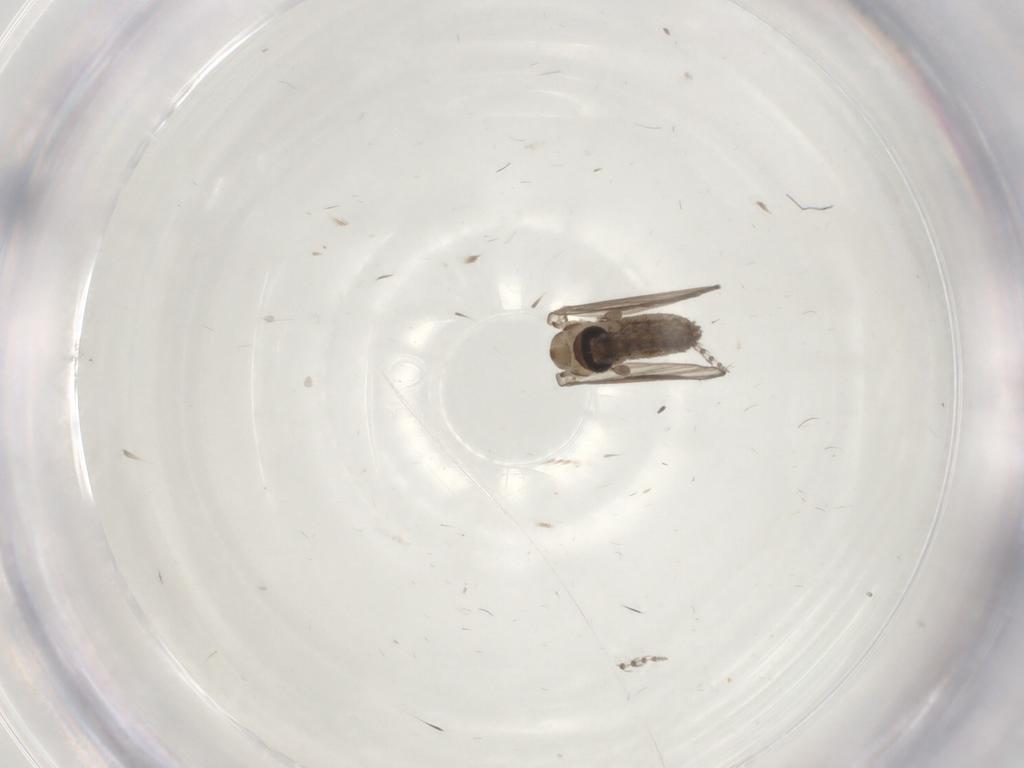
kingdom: Animalia
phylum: Arthropoda
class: Insecta
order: Diptera
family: Psychodidae
